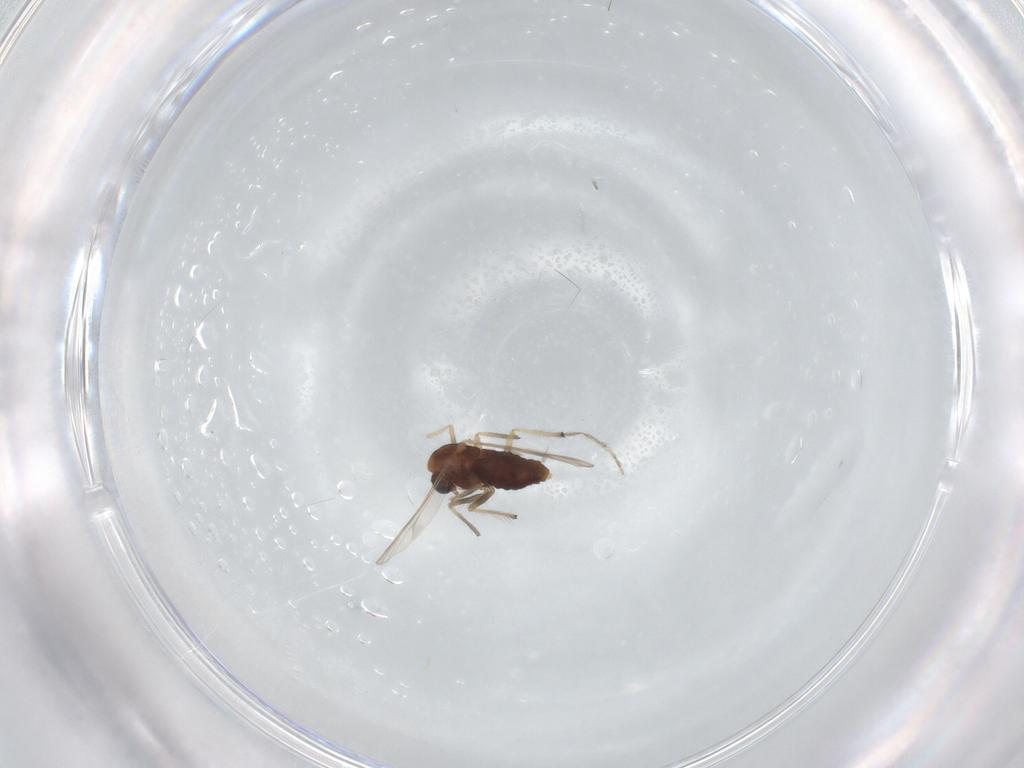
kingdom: Animalia
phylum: Arthropoda
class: Insecta
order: Diptera
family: Chironomidae
